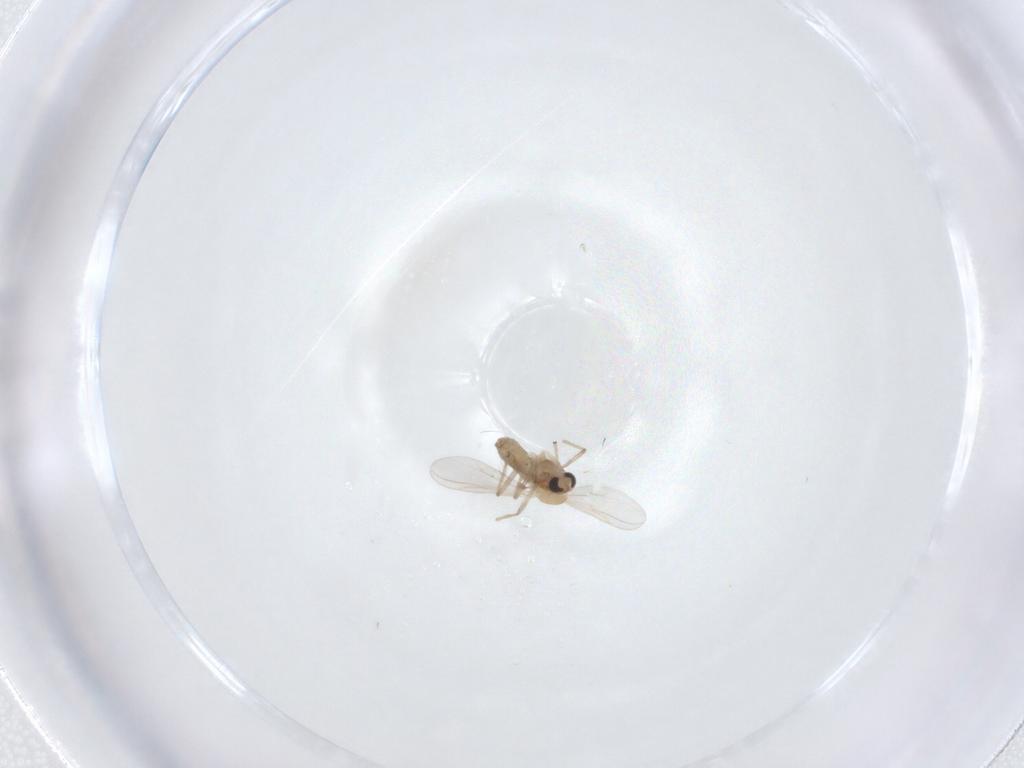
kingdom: Animalia
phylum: Arthropoda
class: Insecta
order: Diptera
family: Chironomidae
